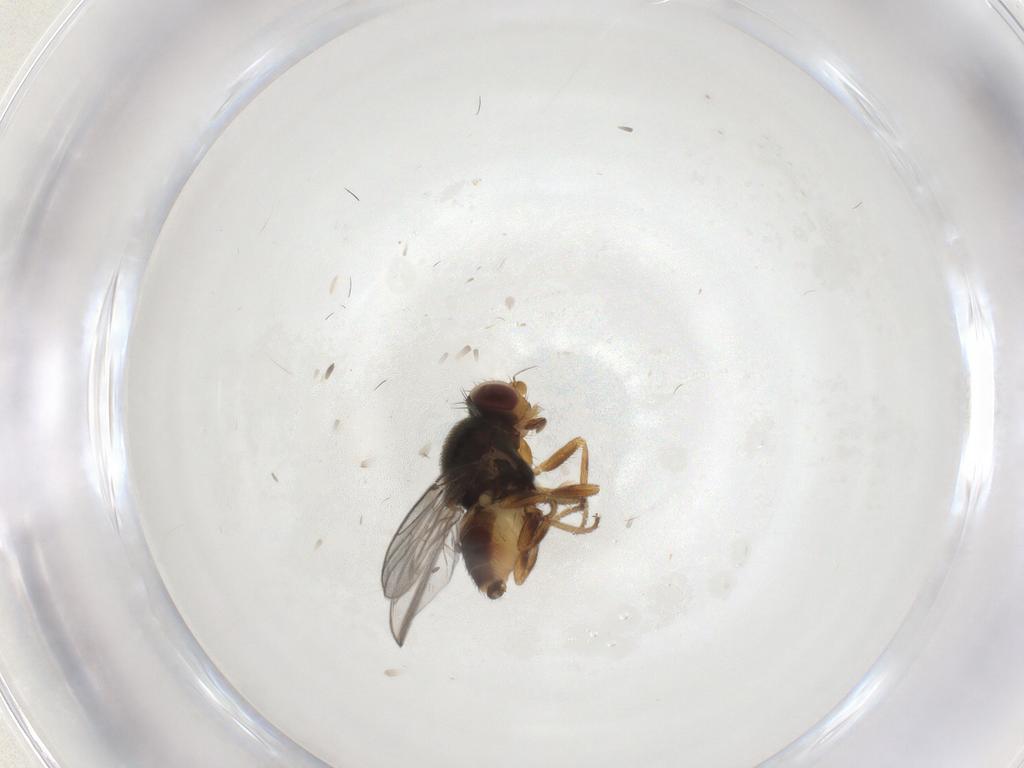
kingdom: Animalia
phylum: Arthropoda
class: Insecta
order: Diptera
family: Chloropidae
